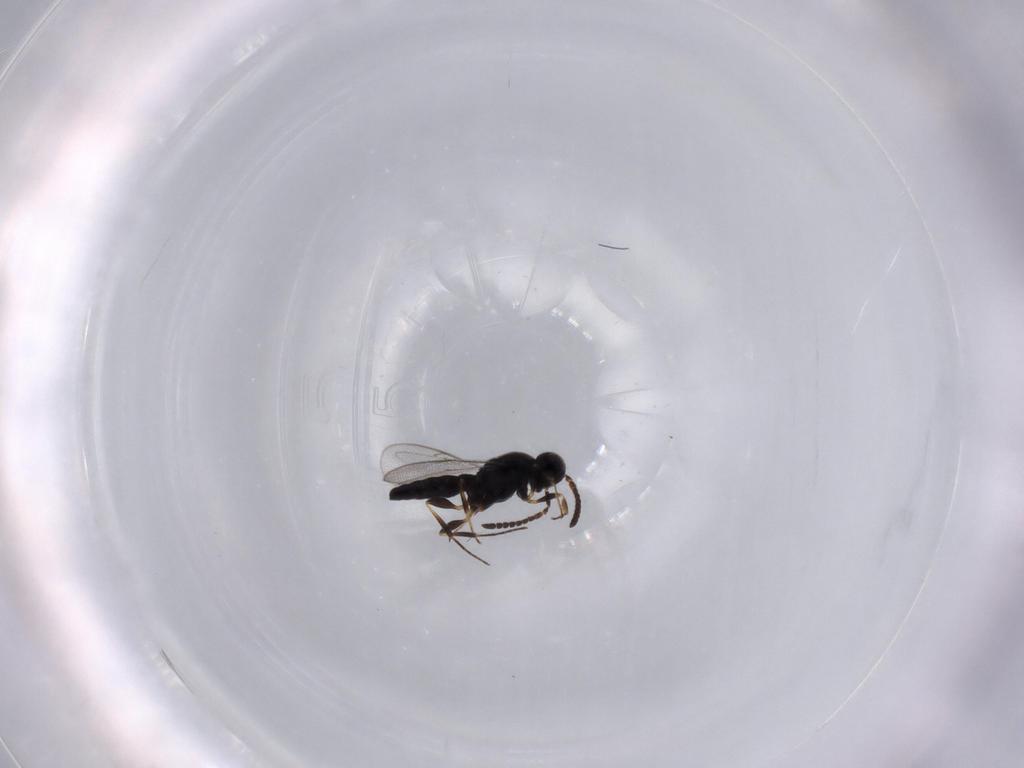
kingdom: Animalia
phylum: Arthropoda
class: Insecta
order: Hymenoptera
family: Scelionidae
